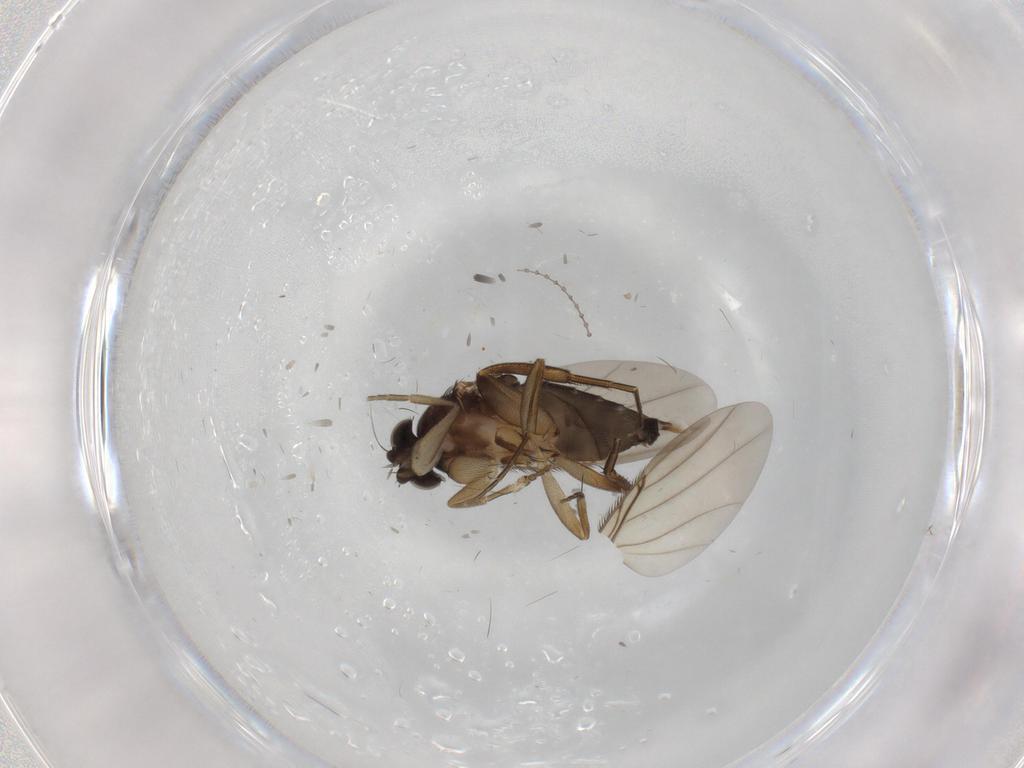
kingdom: Animalia
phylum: Arthropoda
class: Insecta
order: Diptera
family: Phoridae
